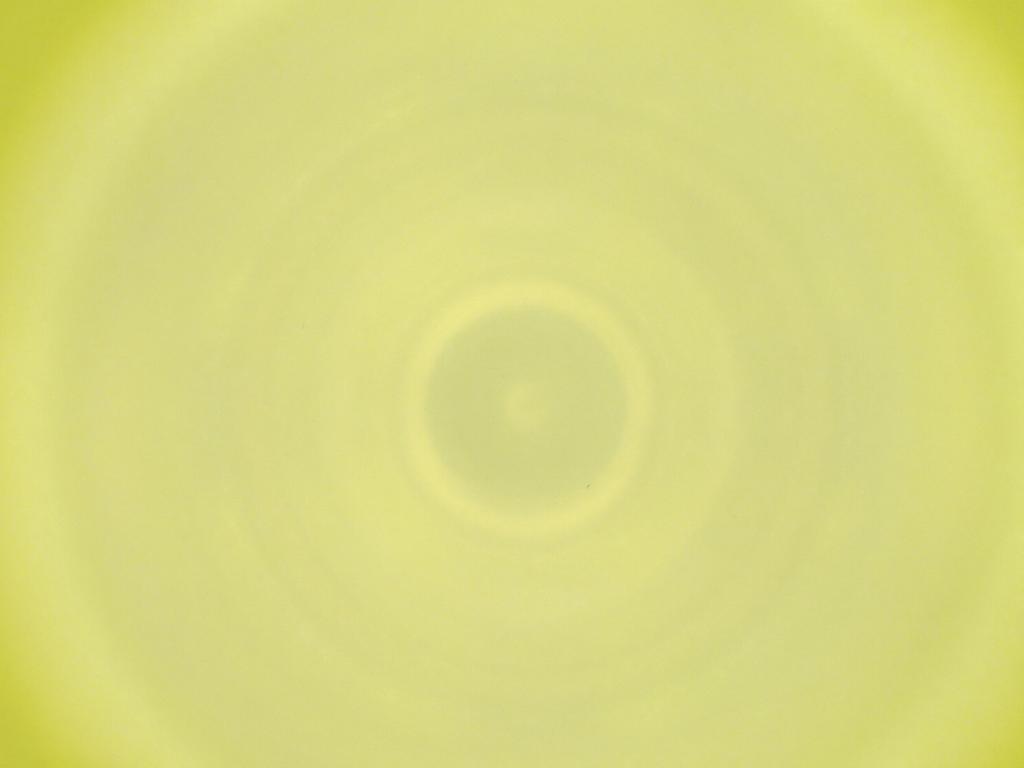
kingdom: Animalia
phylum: Arthropoda
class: Insecta
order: Diptera
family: Cecidomyiidae
